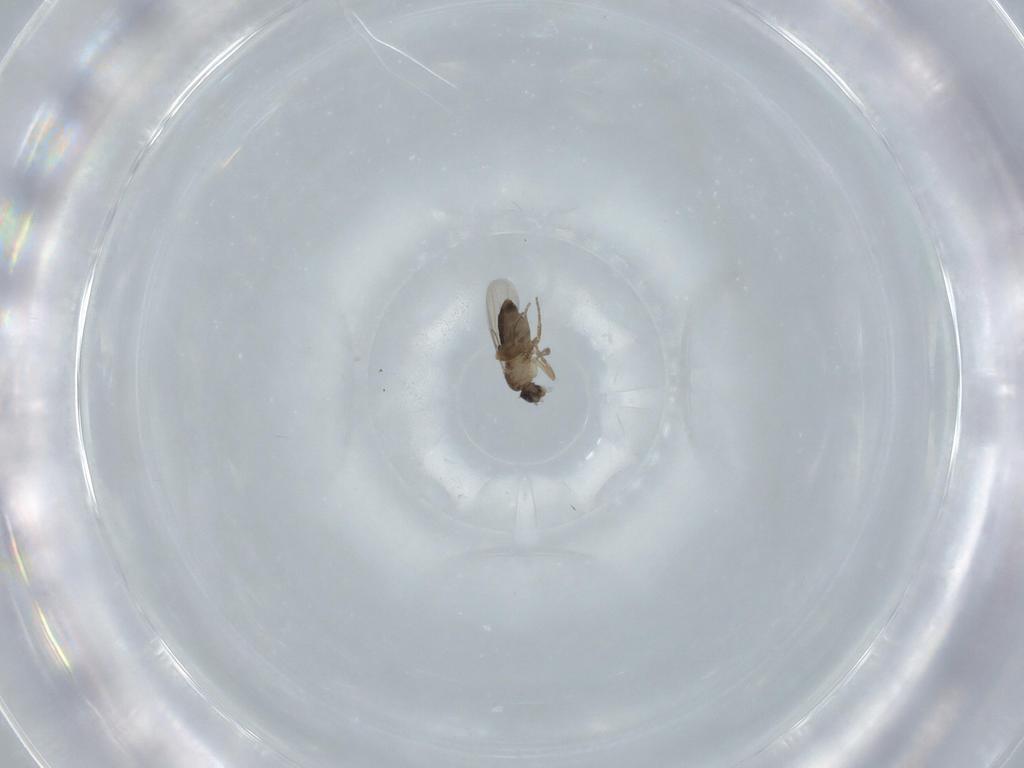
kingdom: Animalia
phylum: Arthropoda
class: Insecta
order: Diptera
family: Phoridae
